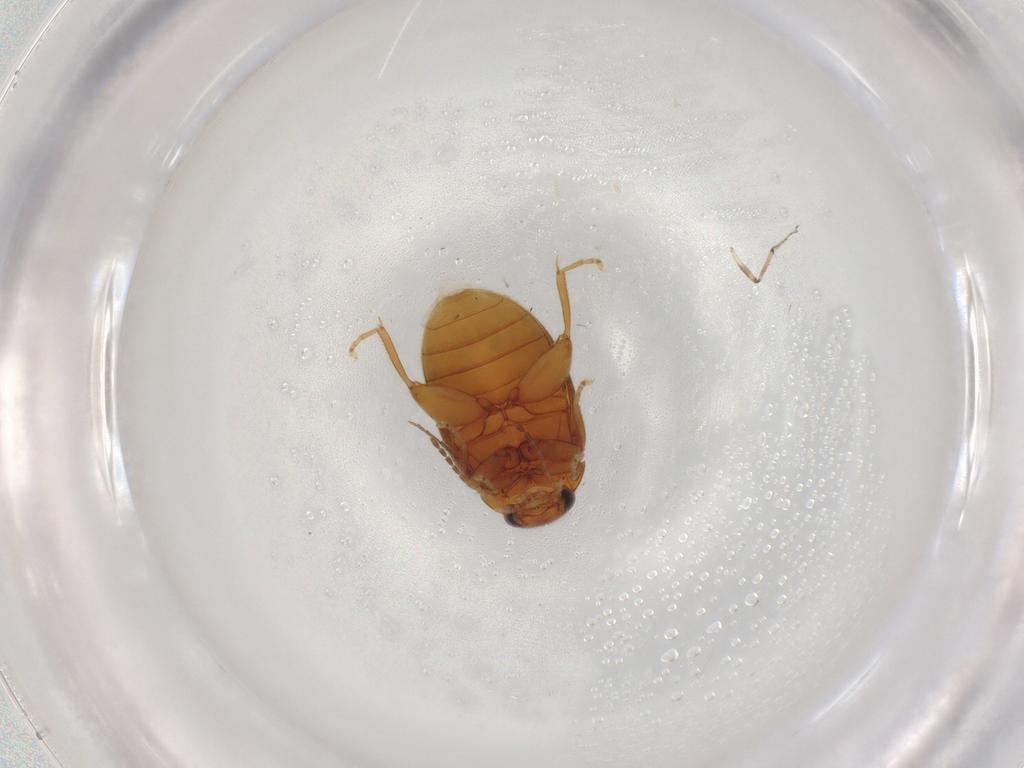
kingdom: Animalia
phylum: Arthropoda
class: Insecta
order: Coleoptera
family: Scirtidae
